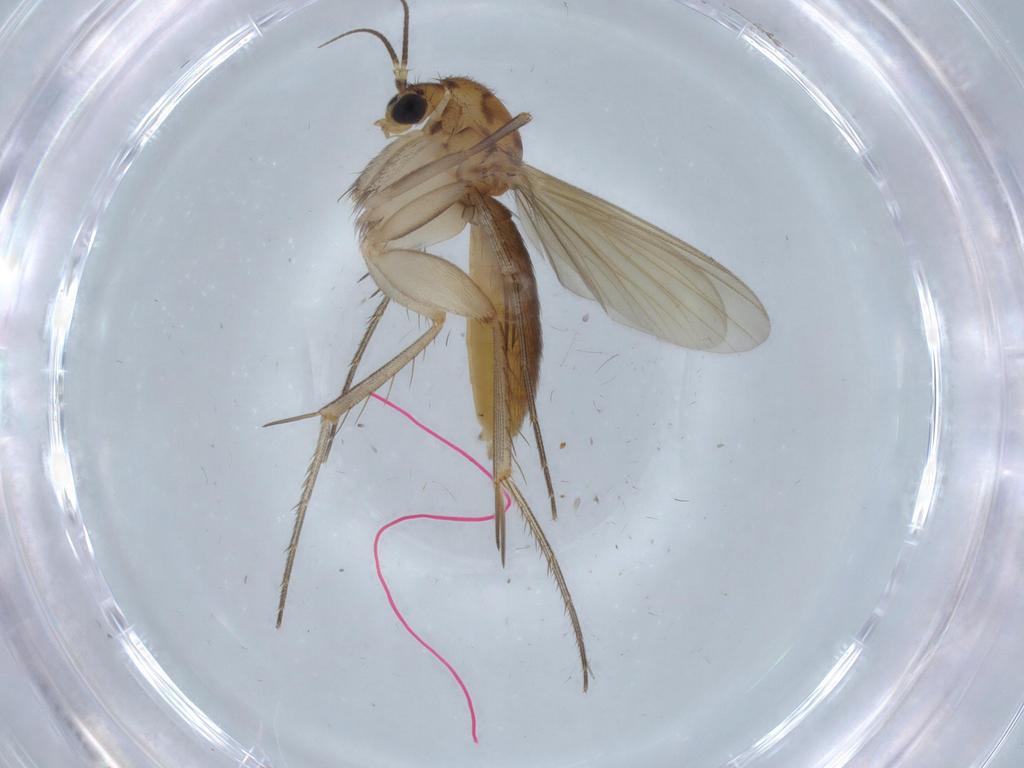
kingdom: Animalia
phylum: Arthropoda
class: Insecta
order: Diptera
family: Mycetophilidae
